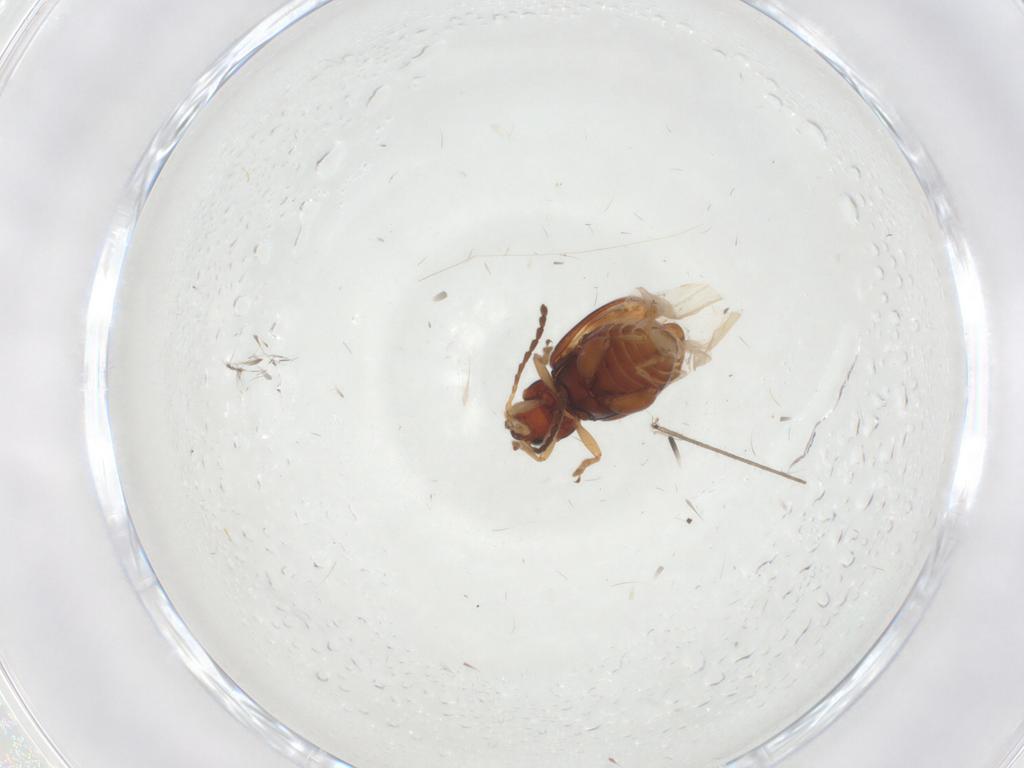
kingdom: Animalia
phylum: Arthropoda
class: Insecta
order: Coleoptera
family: Chrysomelidae
